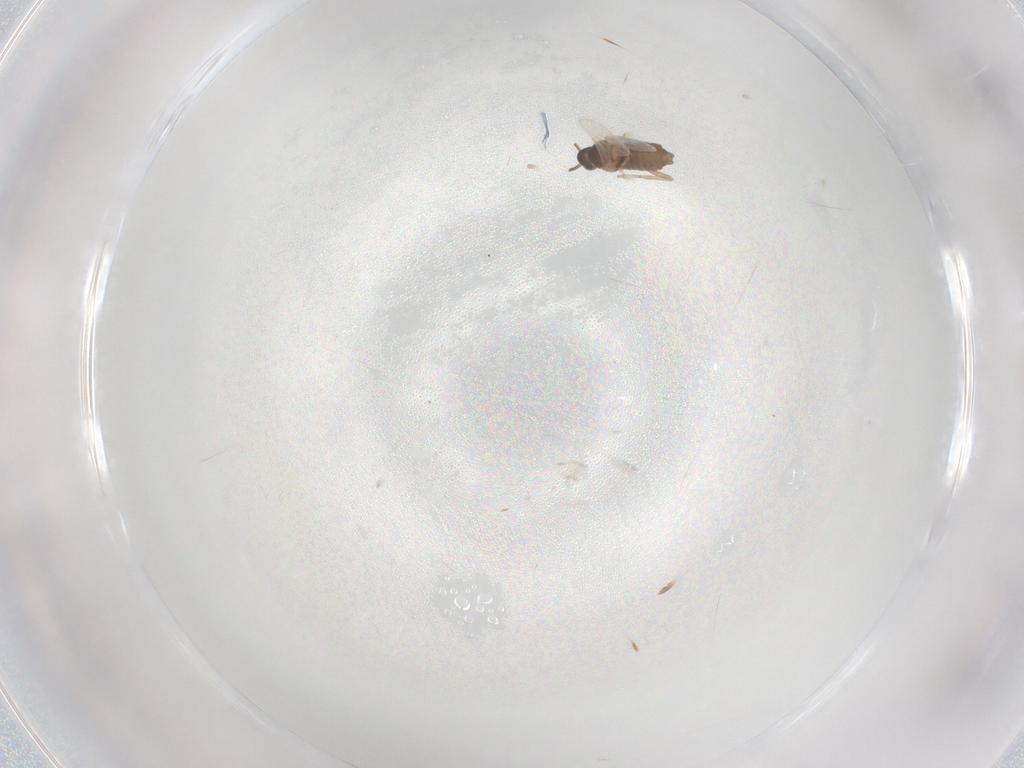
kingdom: Animalia
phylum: Arthropoda
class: Insecta
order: Diptera
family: Cecidomyiidae
